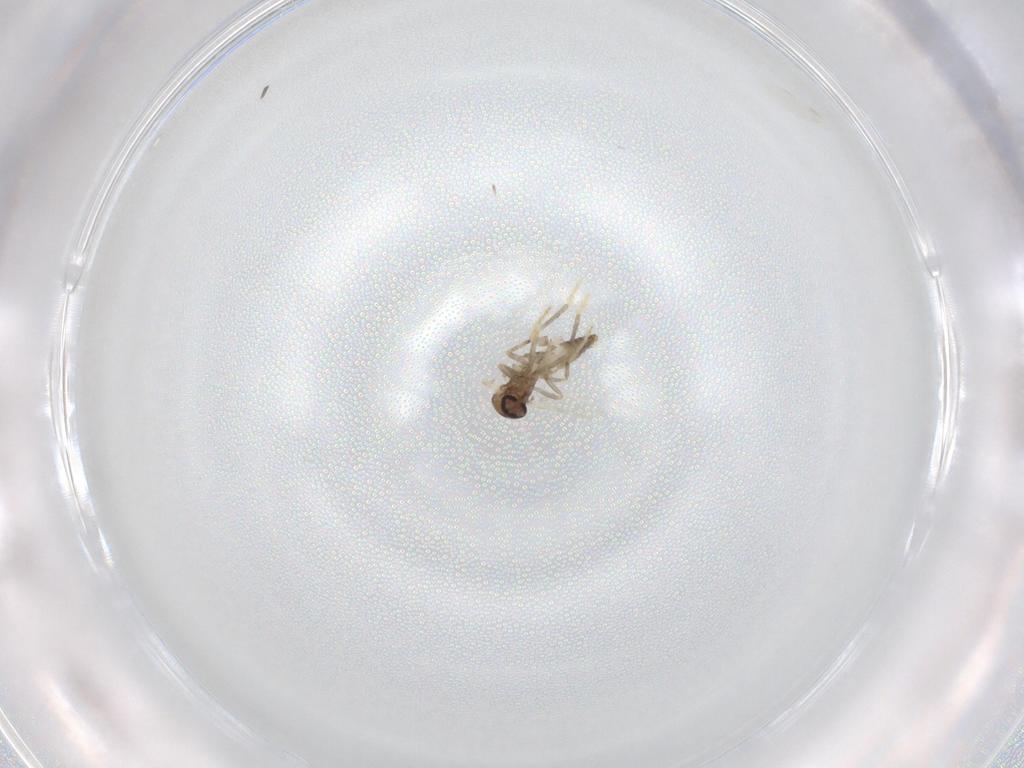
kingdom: Animalia
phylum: Arthropoda
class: Insecta
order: Diptera
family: Ceratopogonidae
